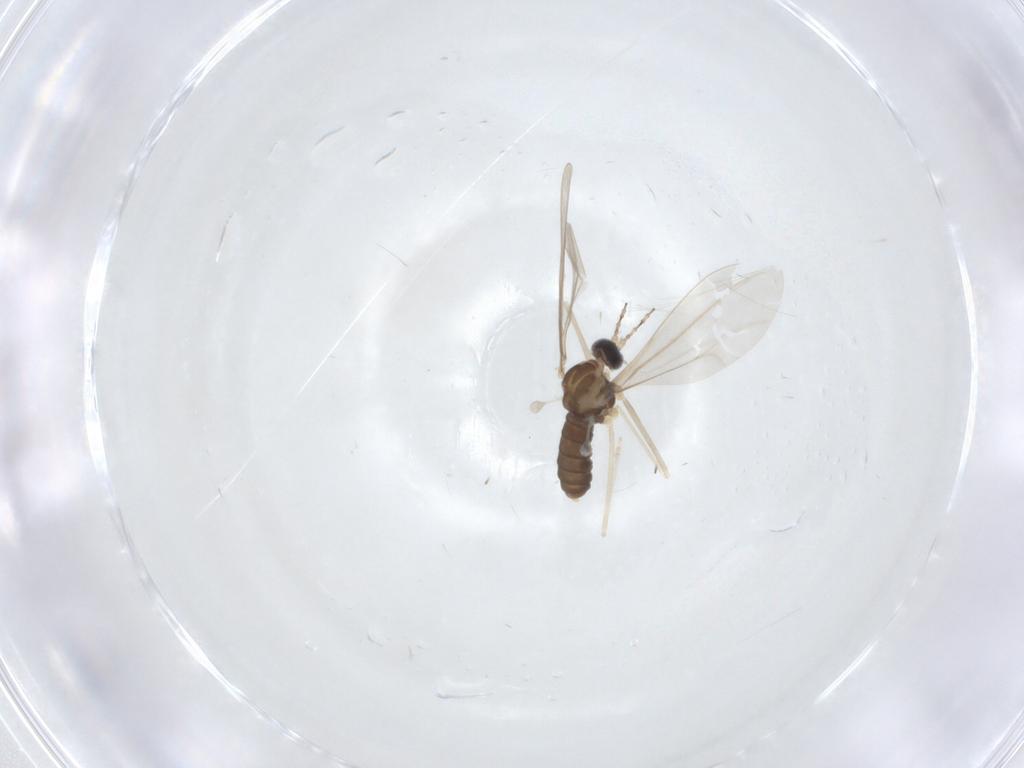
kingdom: Animalia
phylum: Arthropoda
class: Insecta
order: Diptera
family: Cecidomyiidae
